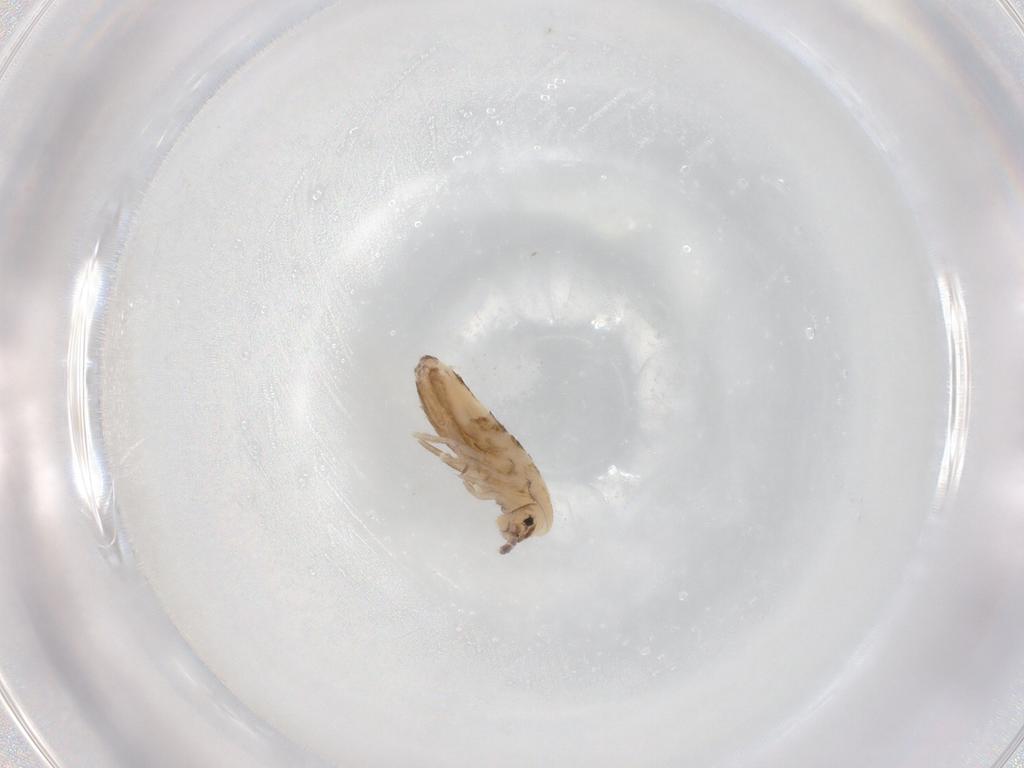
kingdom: Animalia
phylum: Arthropoda
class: Collembola
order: Entomobryomorpha
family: Entomobryidae
